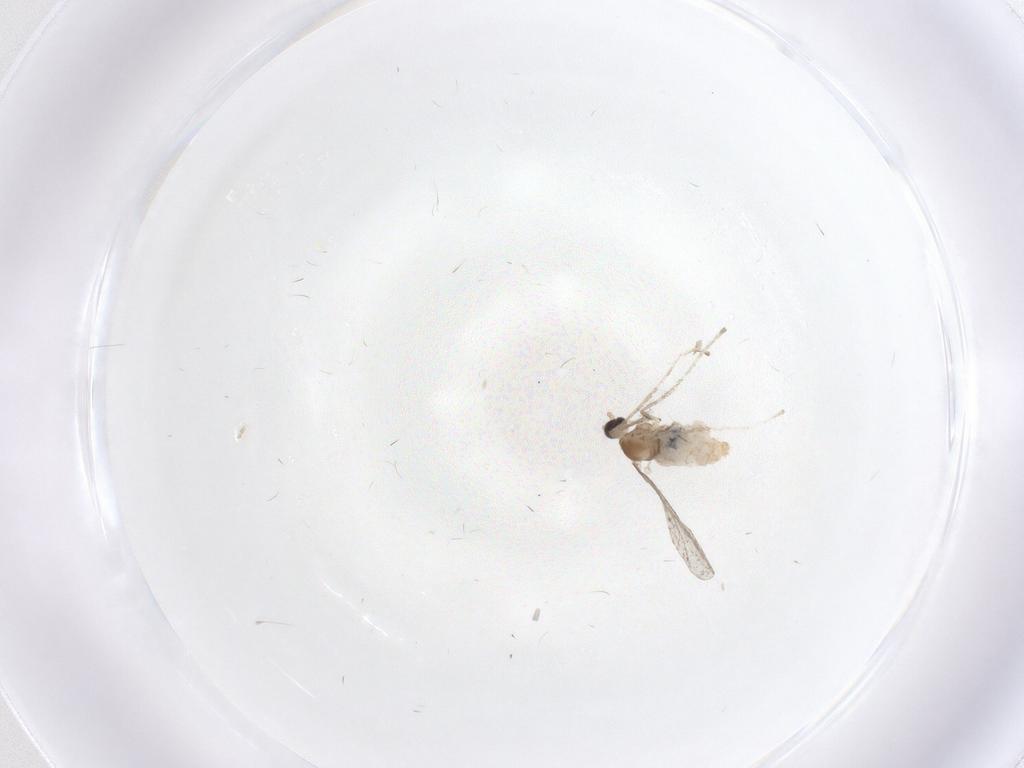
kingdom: Animalia
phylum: Arthropoda
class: Insecta
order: Diptera
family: Cecidomyiidae
